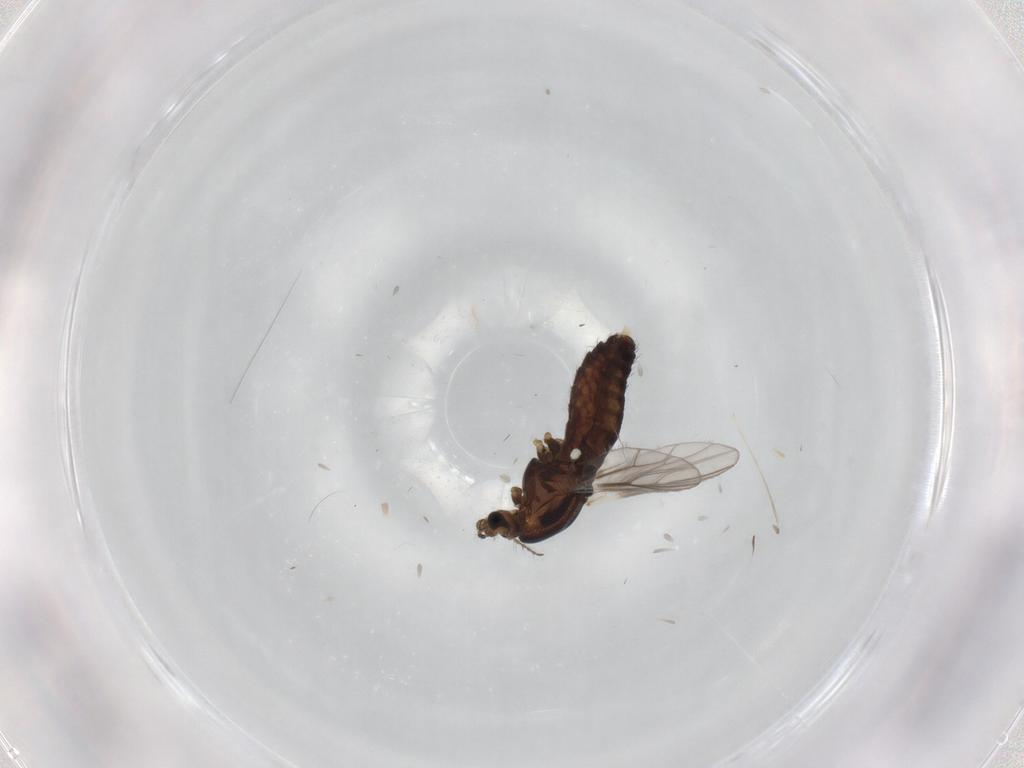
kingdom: Animalia
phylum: Arthropoda
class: Insecta
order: Diptera
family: Chironomidae
